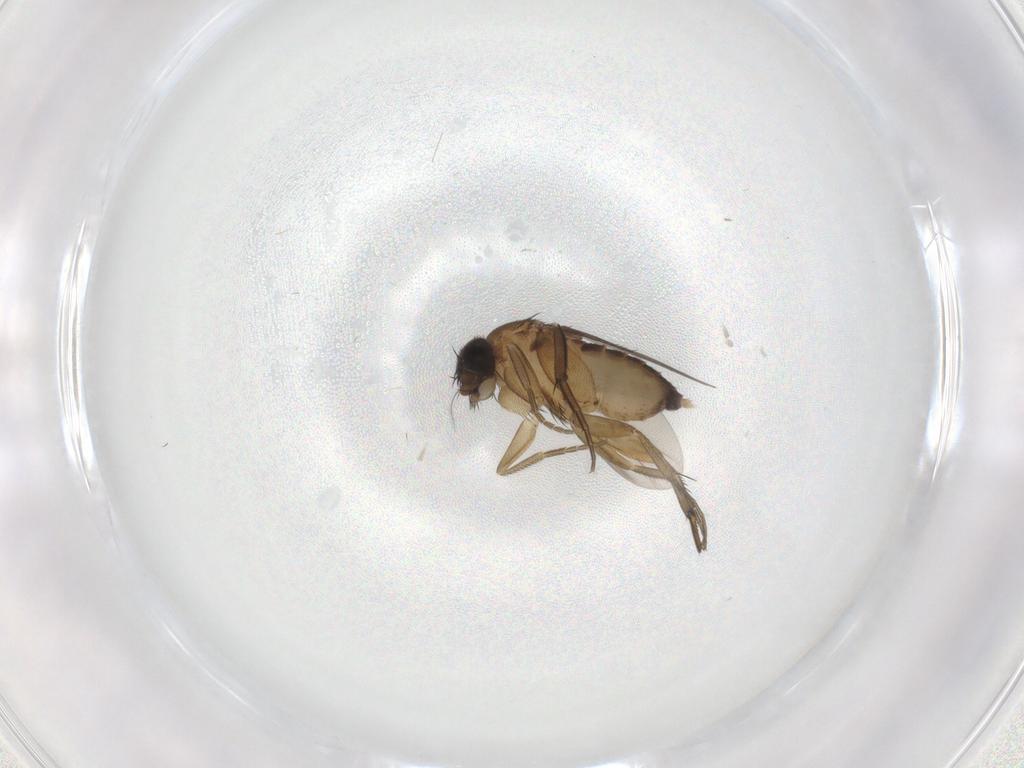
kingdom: Animalia
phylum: Arthropoda
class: Insecta
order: Diptera
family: Phoridae
